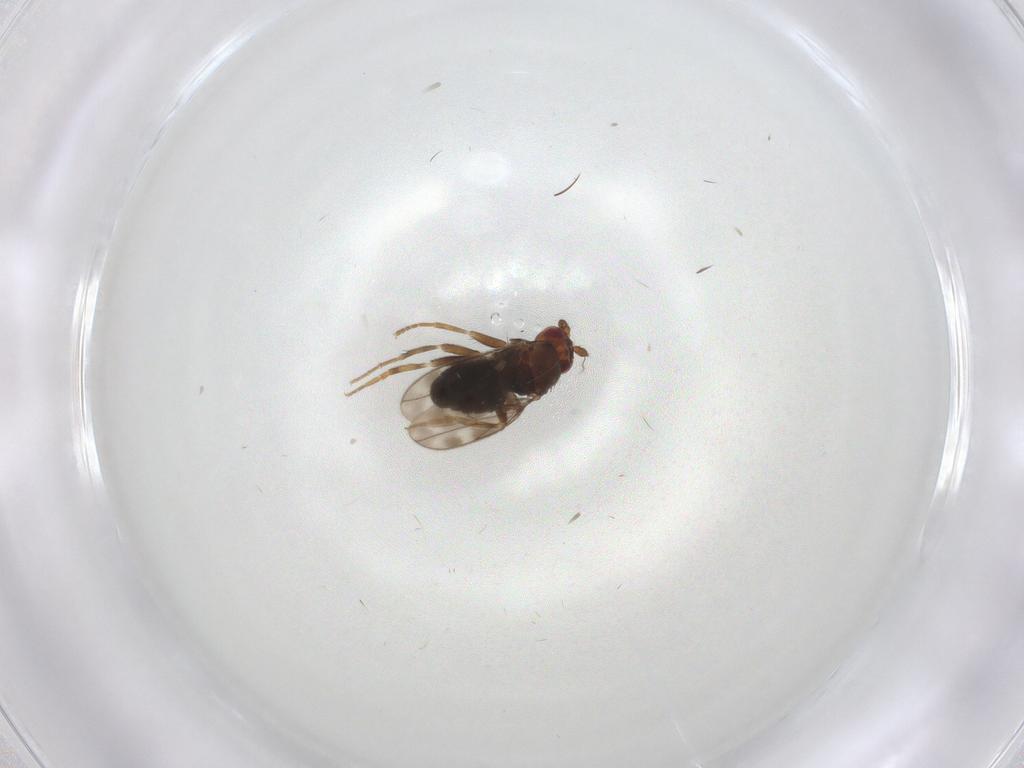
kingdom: Animalia
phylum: Arthropoda
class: Insecta
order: Diptera
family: Sphaeroceridae
